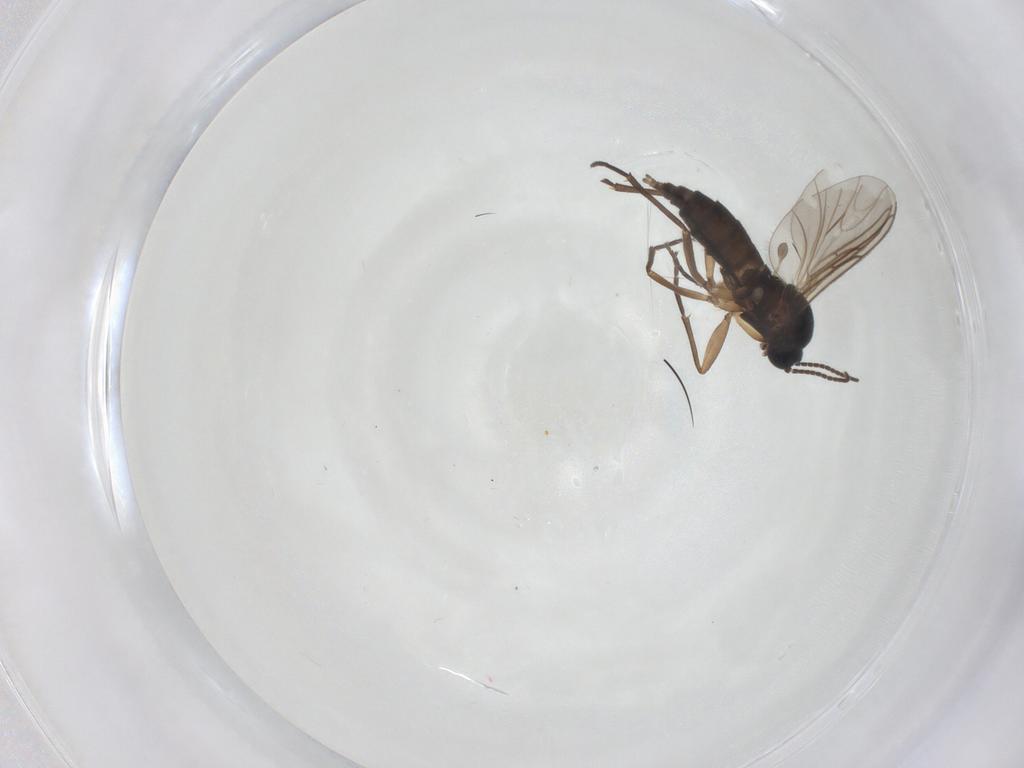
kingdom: Animalia
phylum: Arthropoda
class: Insecta
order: Diptera
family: Sciaridae
